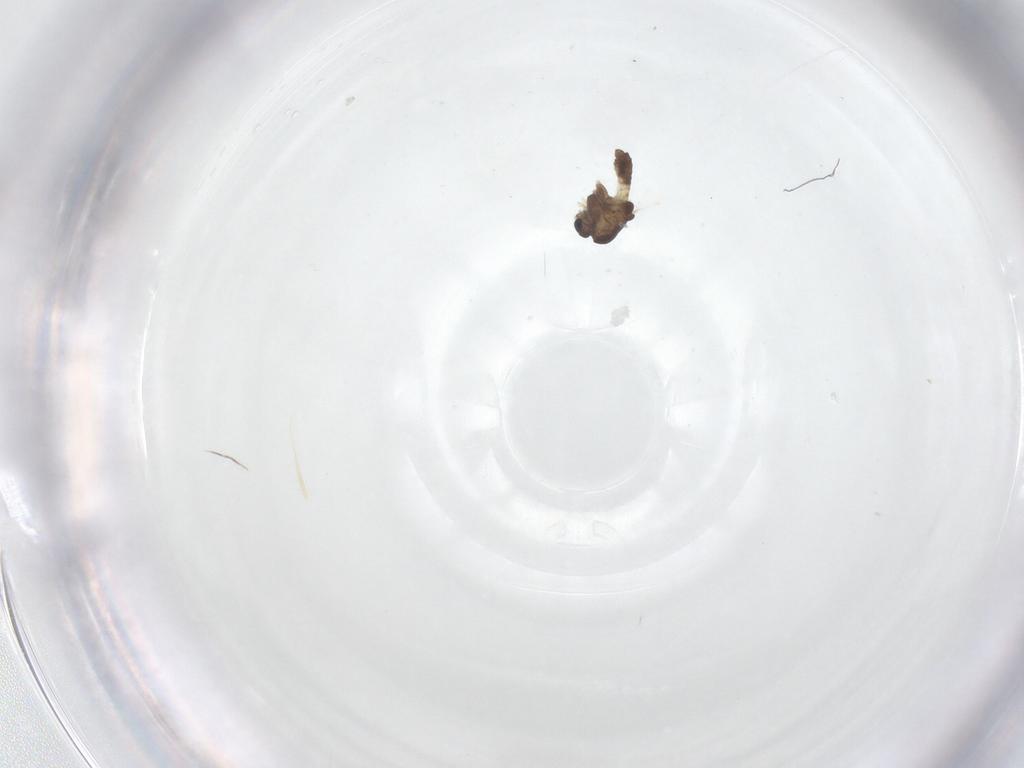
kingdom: Animalia
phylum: Arthropoda
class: Insecta
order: Diptera
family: Chironomidae
